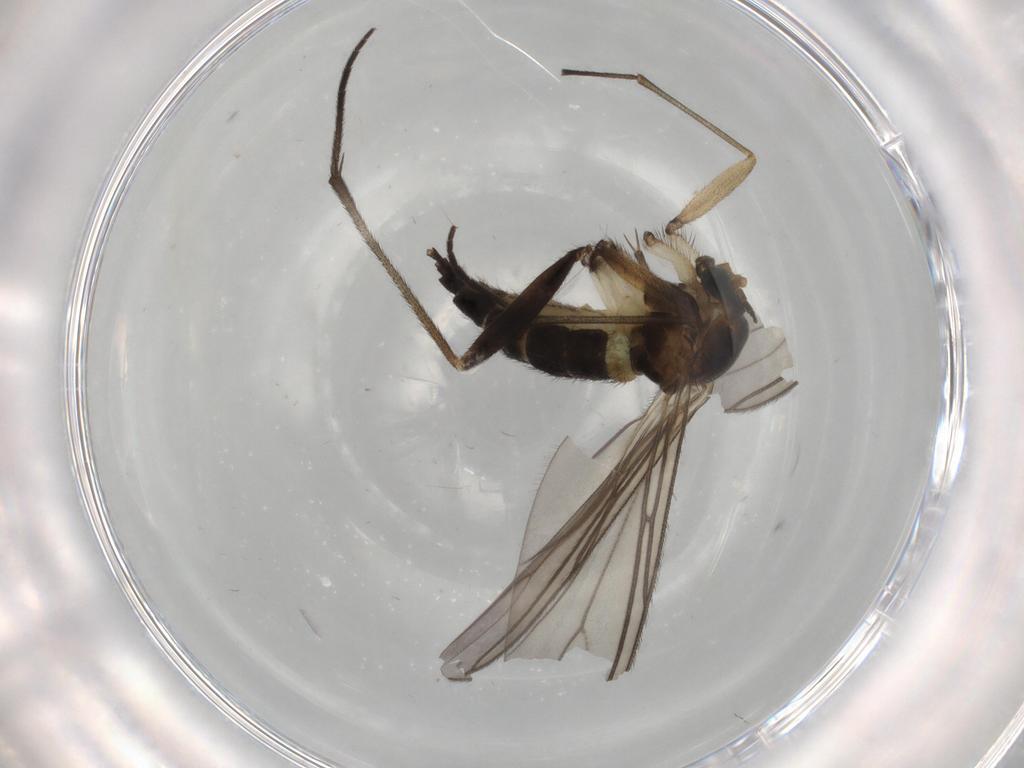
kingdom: Animalia
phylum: Arthropoda
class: Insecta
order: Diptera
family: Sciaridae
